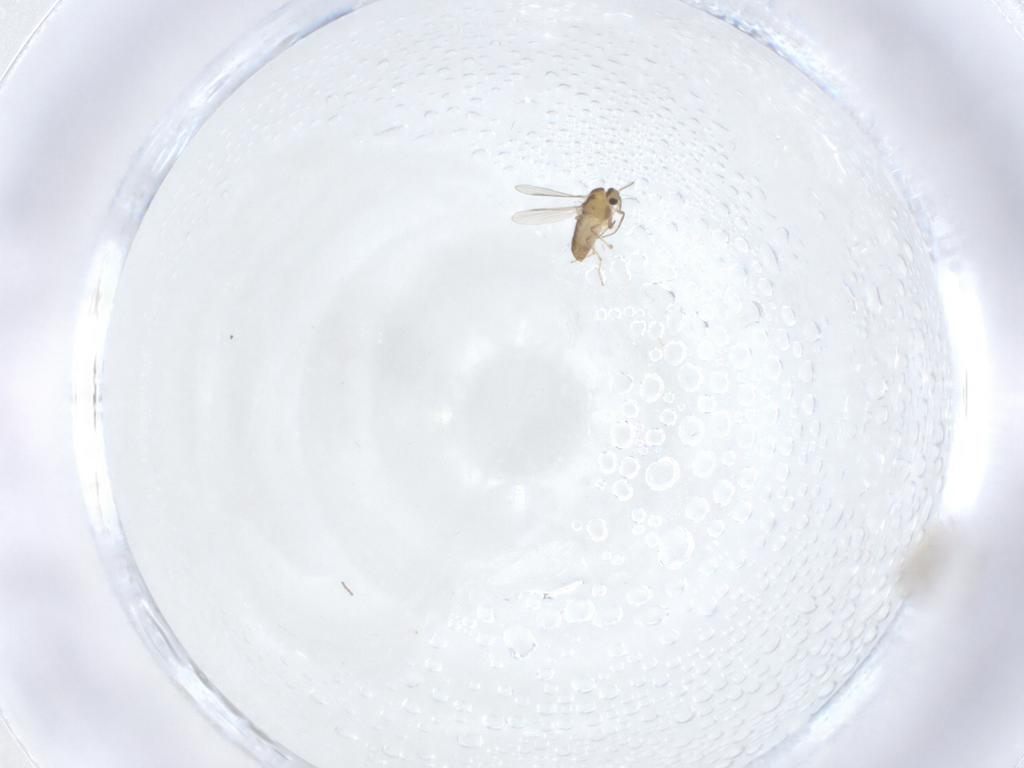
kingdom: Animalia
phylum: Arthropoda
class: Insecta
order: Diptera
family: Cecidomyiidae
